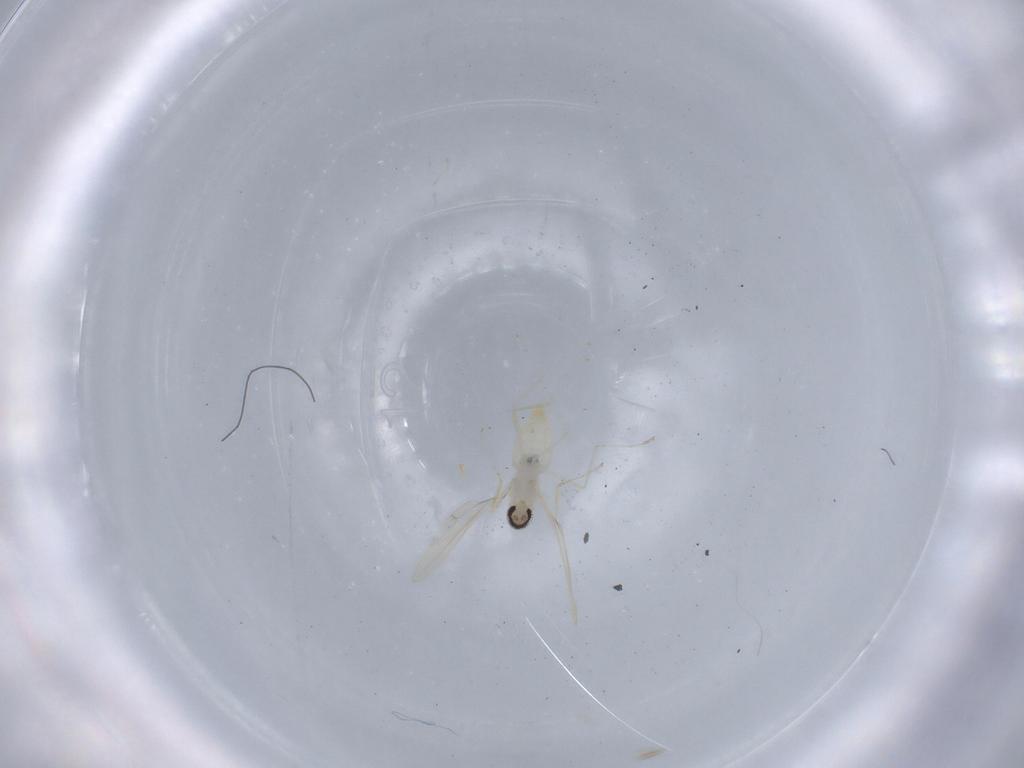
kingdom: Animalia
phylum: Arthropoda
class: Insecta
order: Diptera
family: Cecidomyiidae
